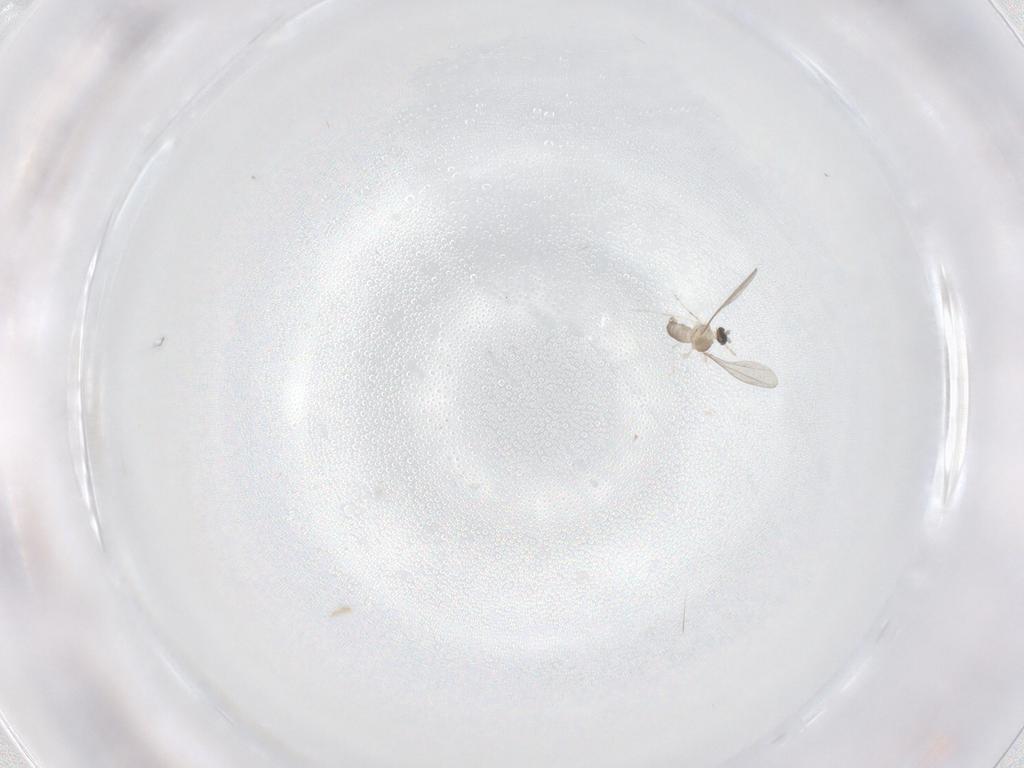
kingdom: Animalia
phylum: Arthropoda
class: Insecta
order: Diptera
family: Cecidomyiidae
